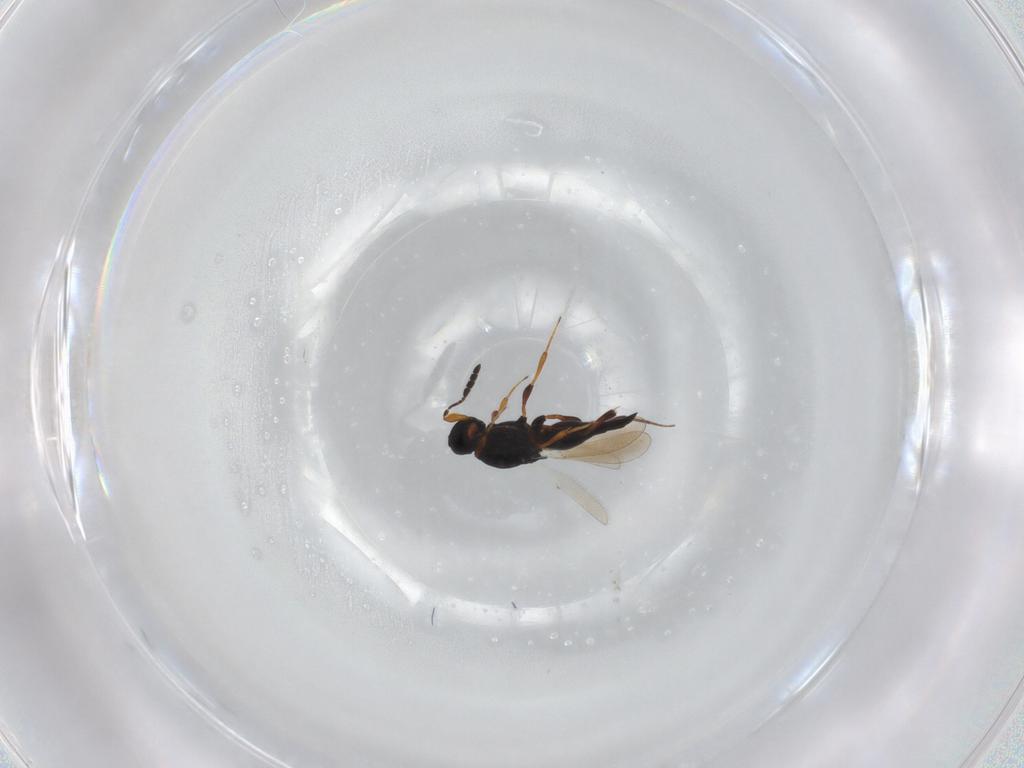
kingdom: Animalia
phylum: Arthropoda
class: Insecta
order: Hymenoptera
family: Platygastridae
